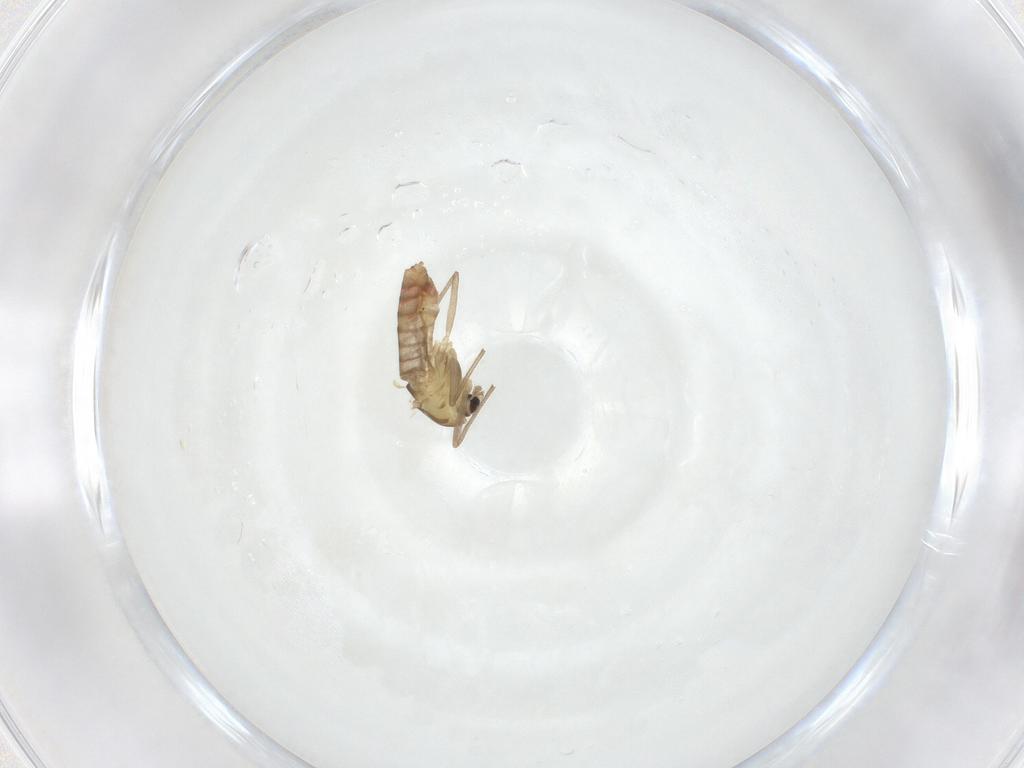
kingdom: Animalia
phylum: Arthropoda
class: Insecta
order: Diptera
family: Chironomidae
